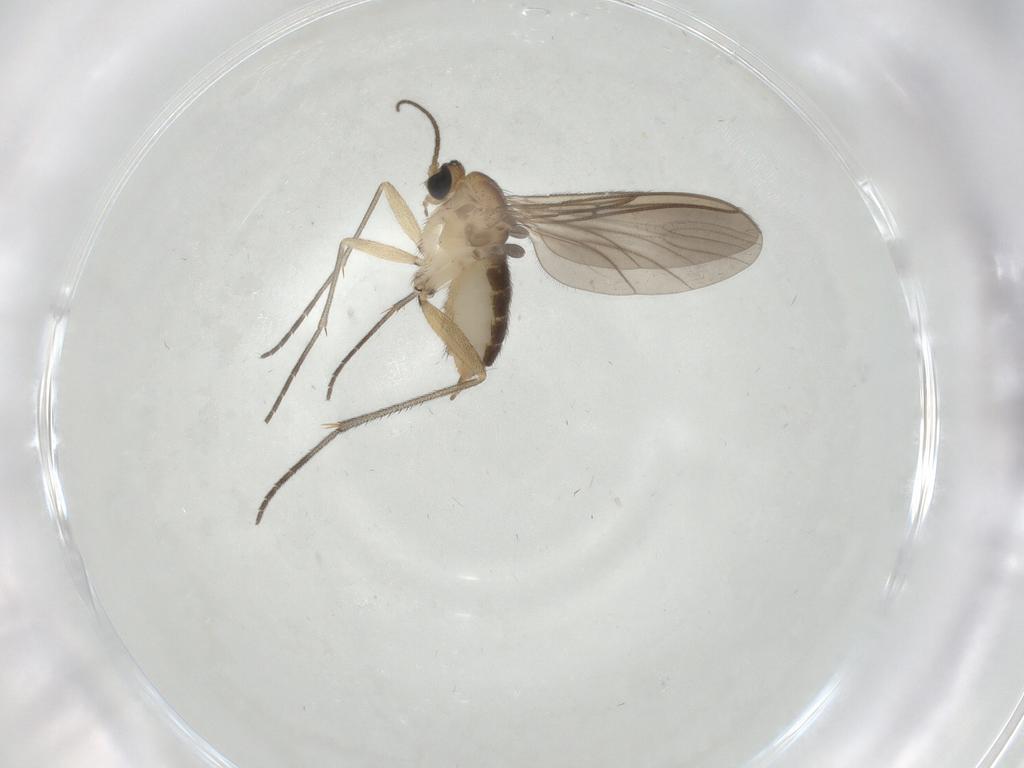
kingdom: Animalia
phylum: Arthropoda
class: Insecta
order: Diptera
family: Sciaridae
